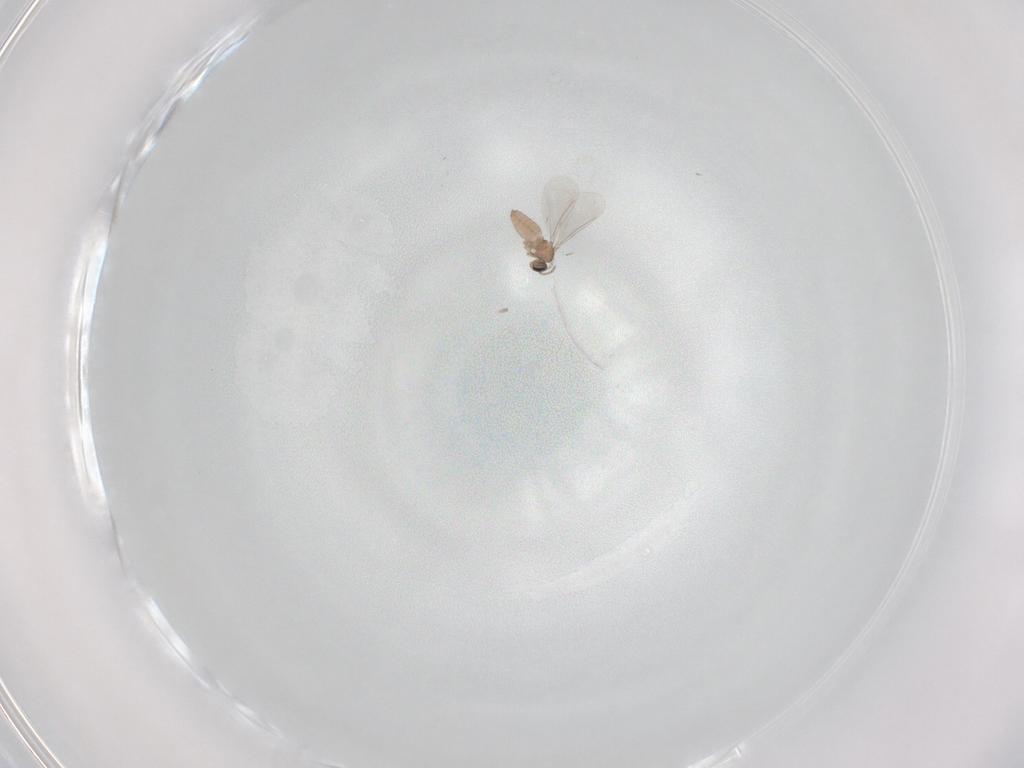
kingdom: Animalia
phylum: Arthropoda
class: Insecta
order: Diptera
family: Cecidomyiidae
